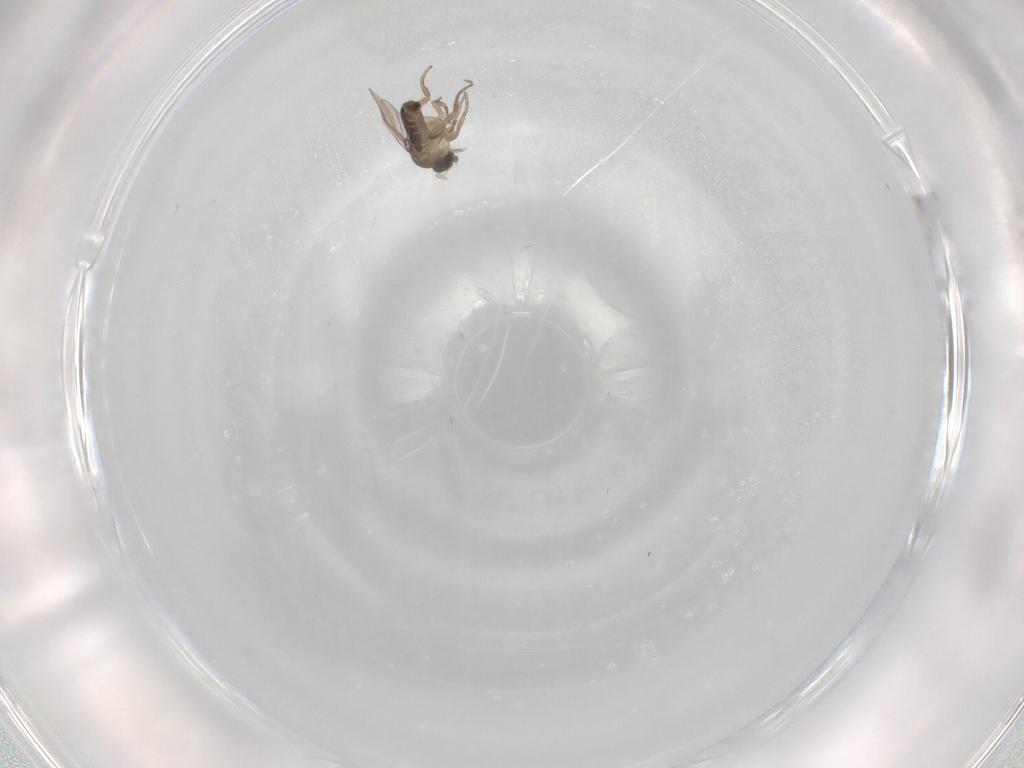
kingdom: Animalia
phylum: Arthropoda
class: Insecta
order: Diptera
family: Phoridae
